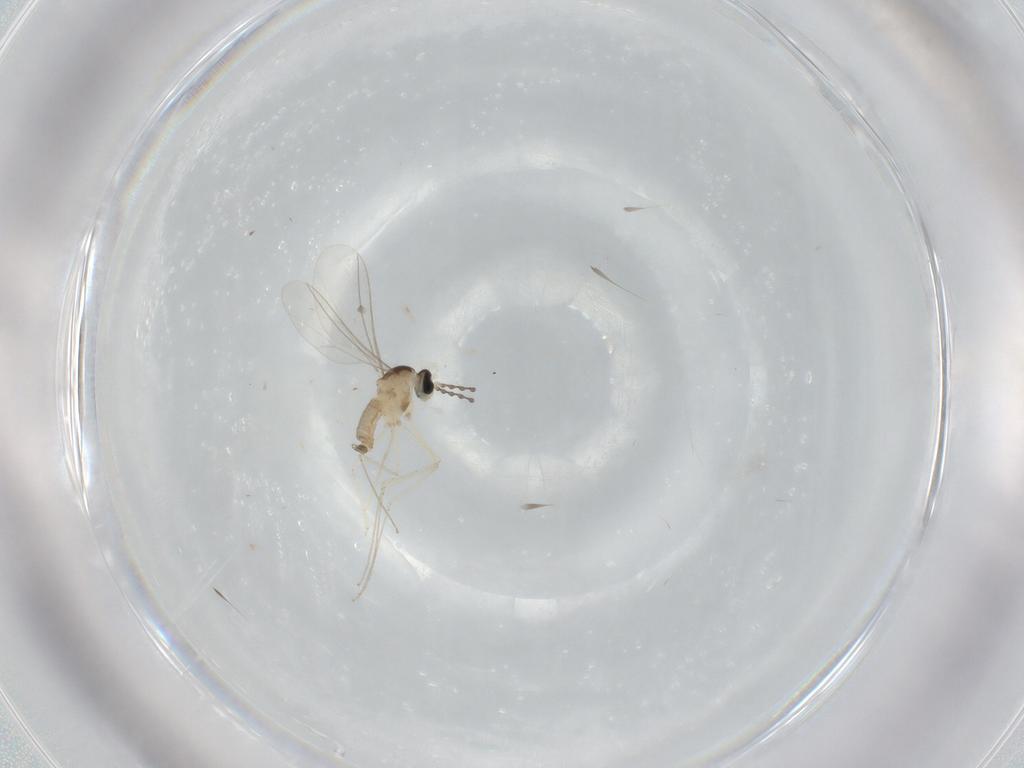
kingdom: Animalia
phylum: Arthropoda
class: Insecta
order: Diptera
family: Cecidomyiidae
